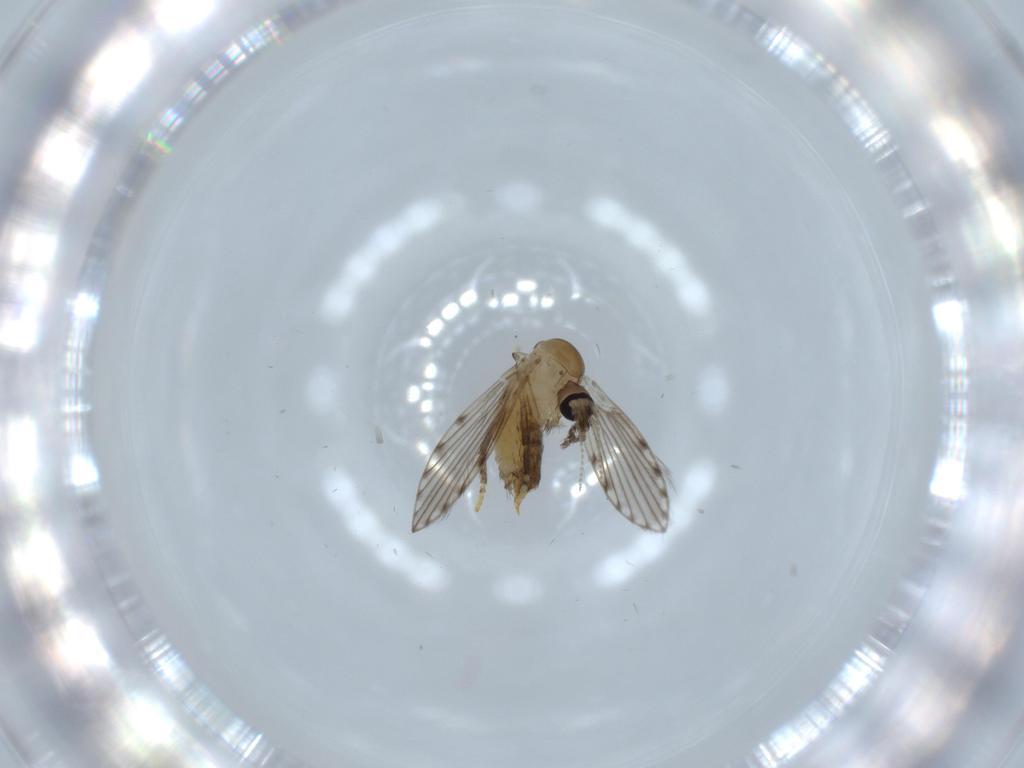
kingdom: Animalia
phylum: Arthropoda
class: Insecta
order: Diptera
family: Psychodidae
